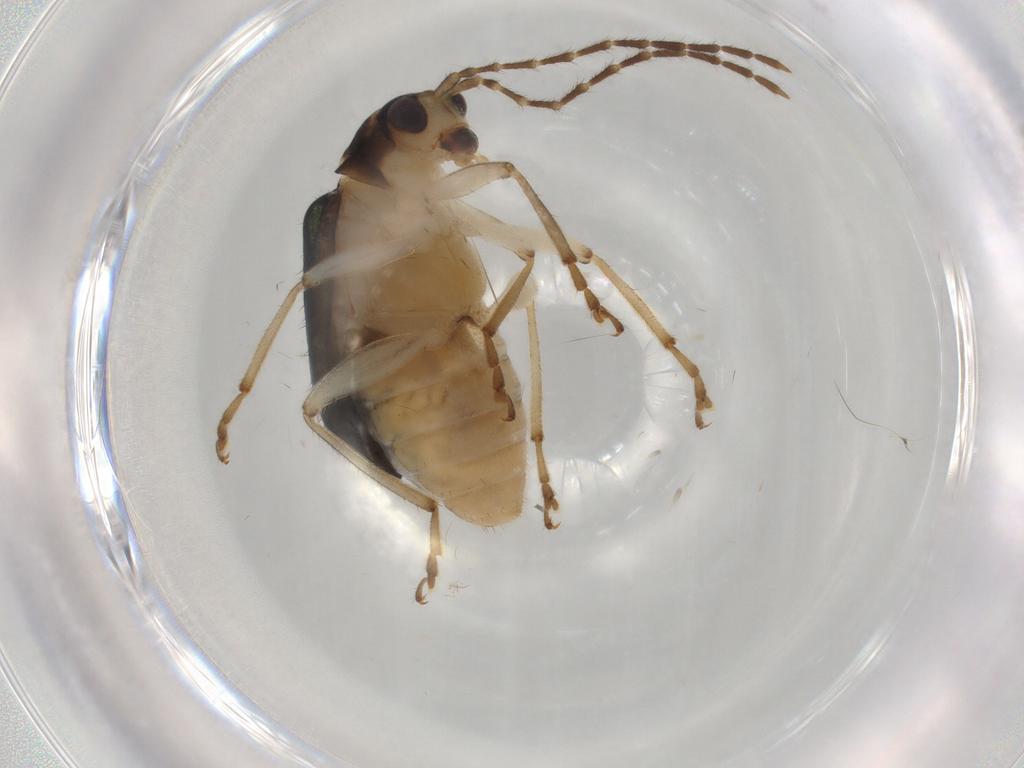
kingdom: Animalia
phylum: Arthropoda
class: Insecta
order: Coleoptera
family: Chrysomelidae
